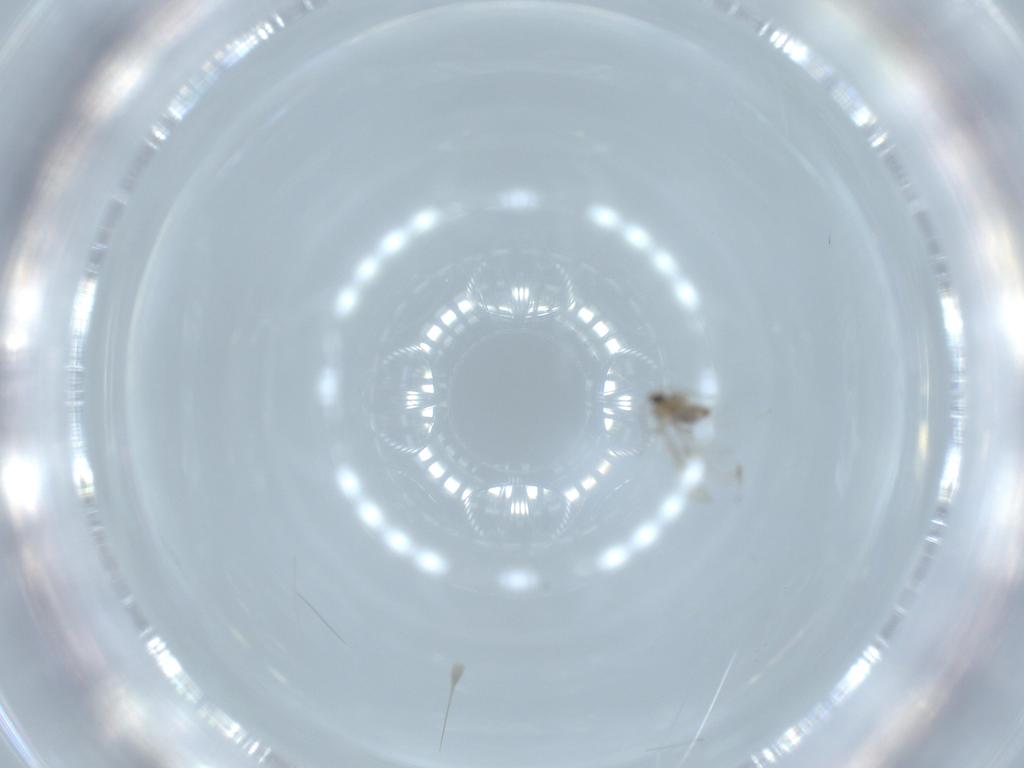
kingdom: Animalia
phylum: Arthropoda
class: Insecta
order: Diptera
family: Cecidomyiidae
